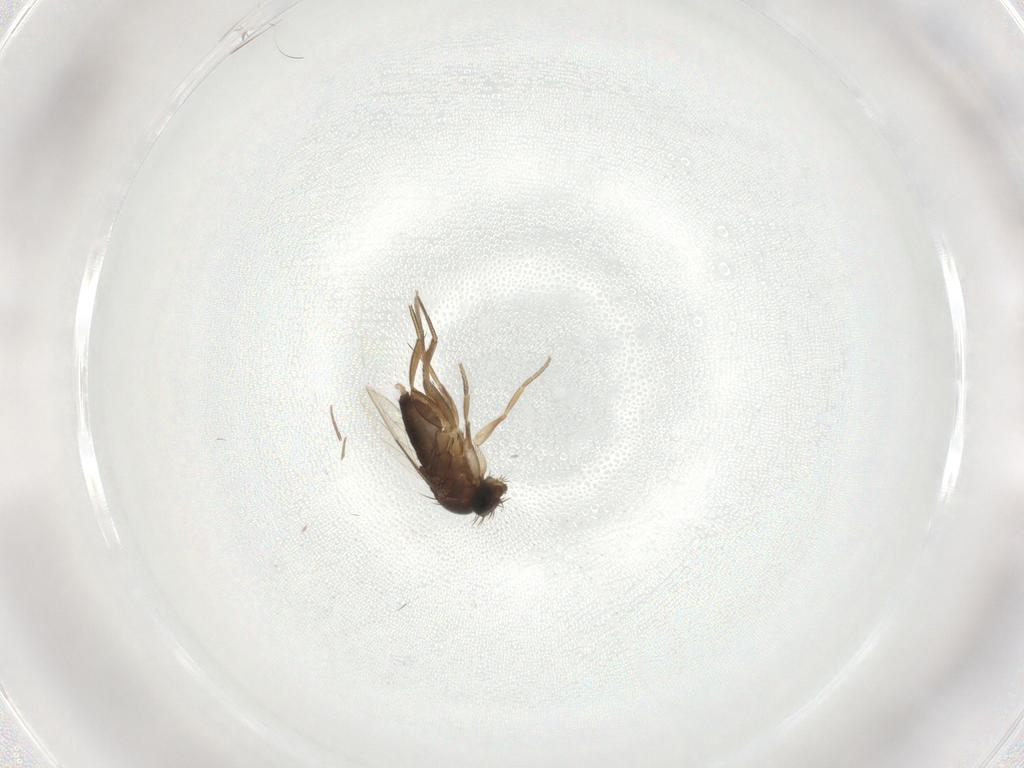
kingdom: Animalia
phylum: Arthropoda
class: Insecta
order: Diptera
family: Phoridae
